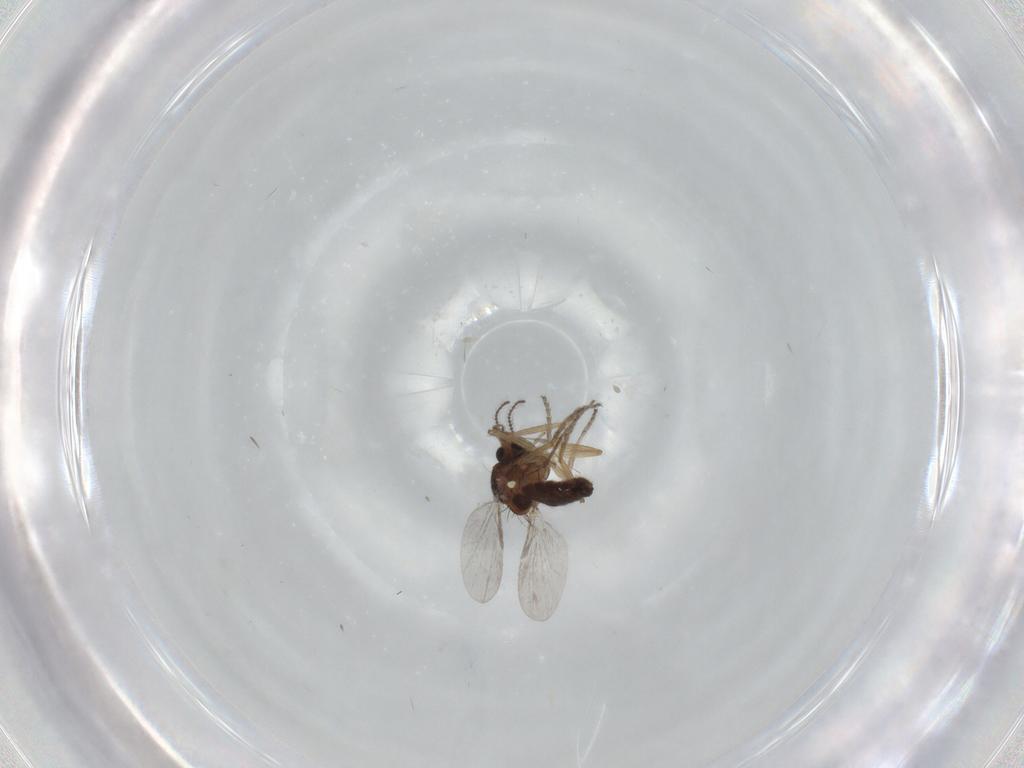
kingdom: Animalia
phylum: Arthropoda
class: Insecta
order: Diptera
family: Ceratopogonidae
